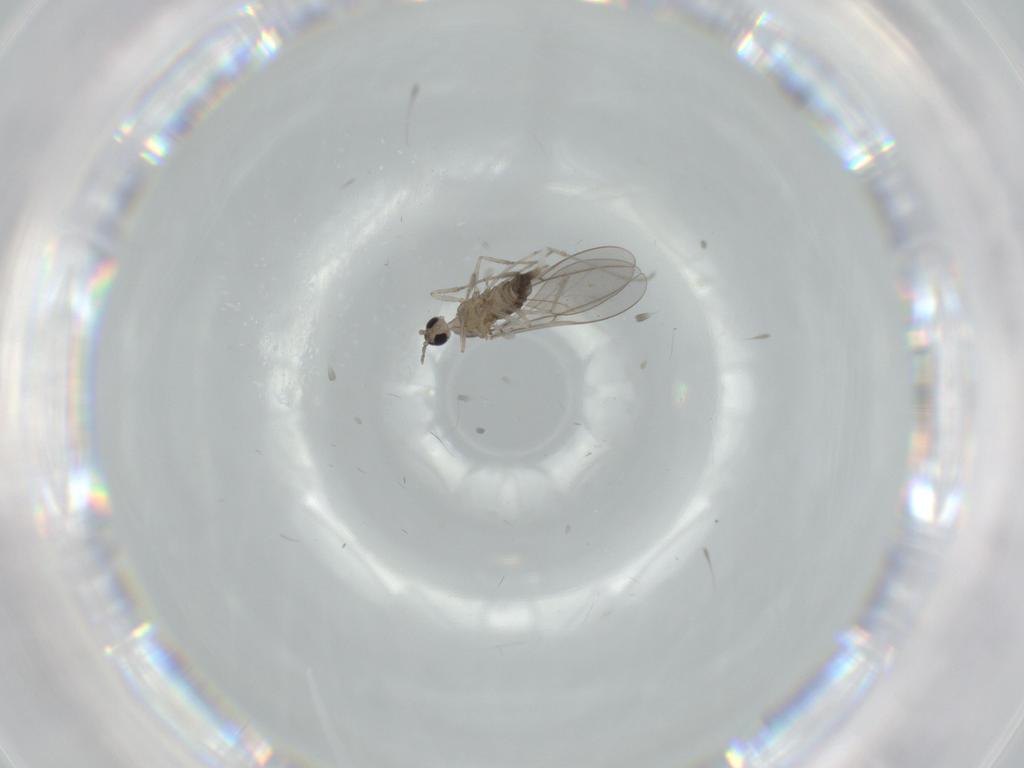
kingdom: Animalia
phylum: Arthropoda
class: Insecta
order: Diptera
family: Cecidomyiidae
